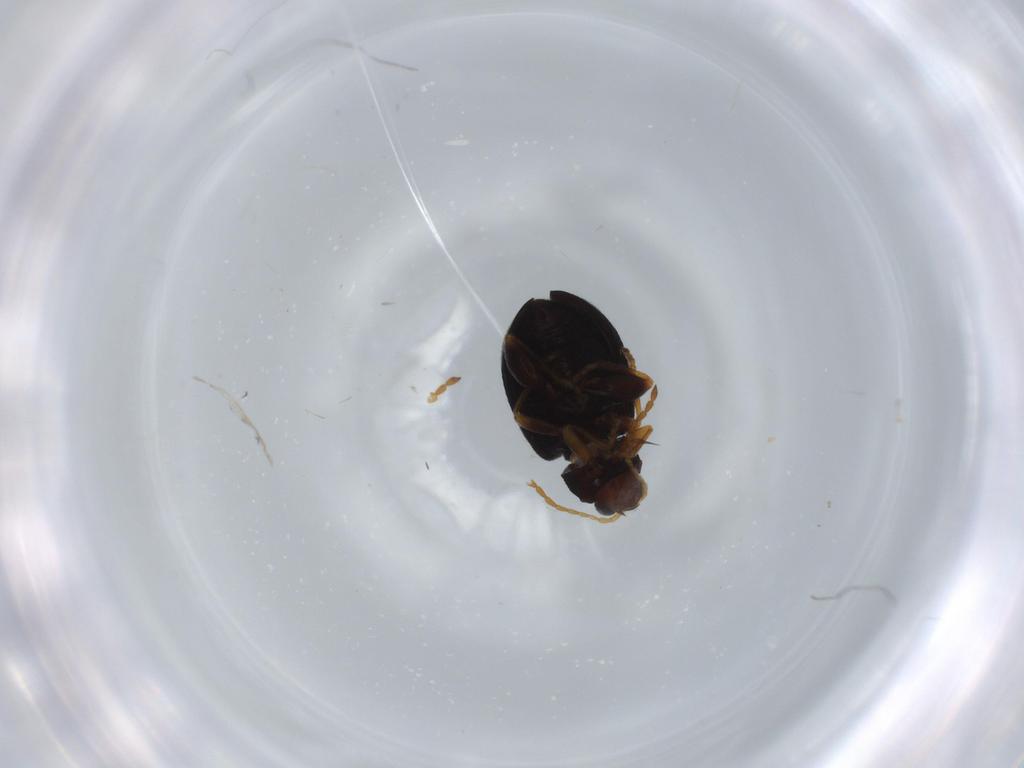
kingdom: Animalia
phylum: Arthropoda
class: Insecta
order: Coleoptera
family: Chrysomelidae
